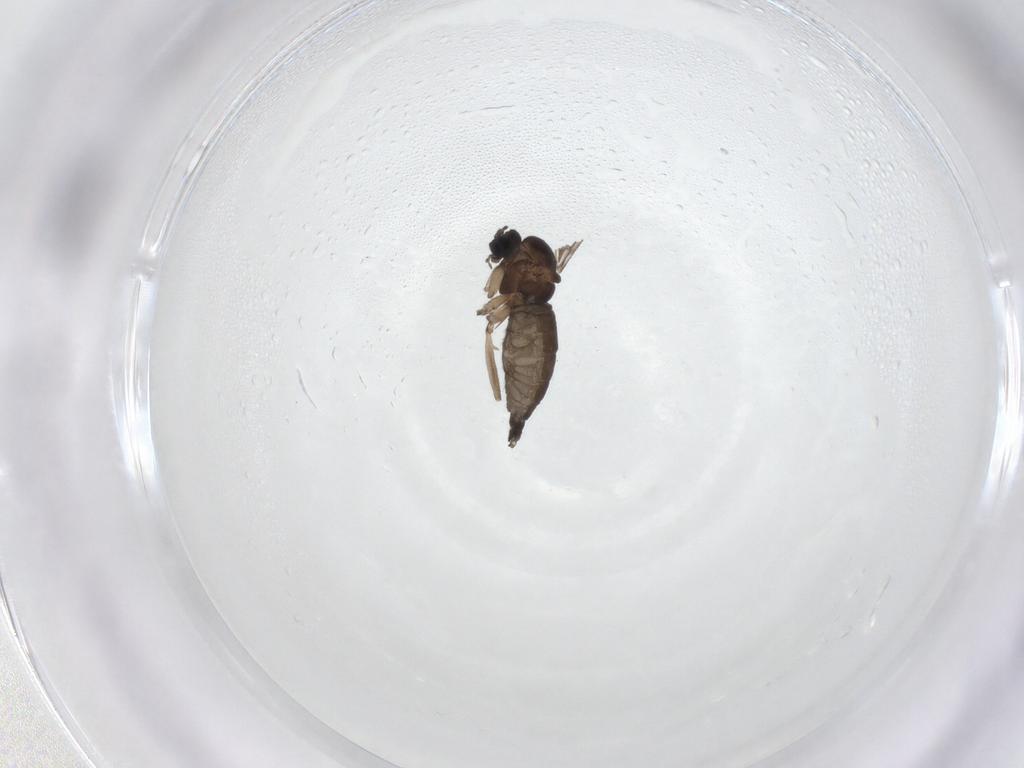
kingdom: Animalia
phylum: Arthropoda
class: Insecta
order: Diptera
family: Sciaridae
